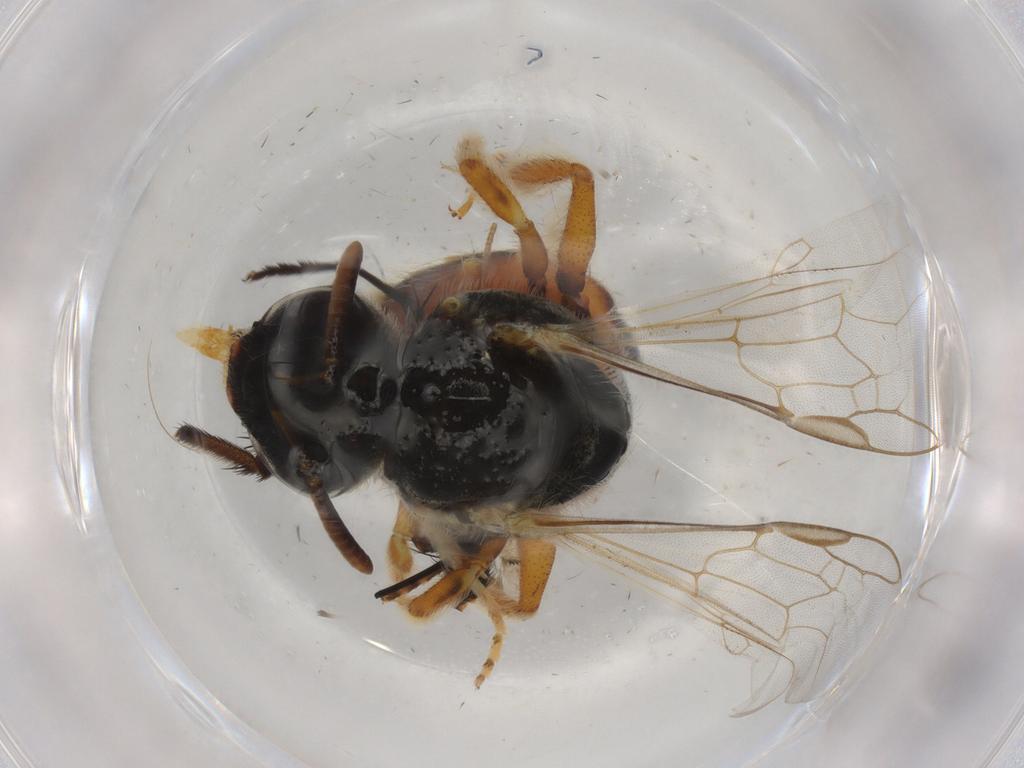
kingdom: Animalia
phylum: Arthropoda
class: Insecta
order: Hymenoptera
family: Halictidae
